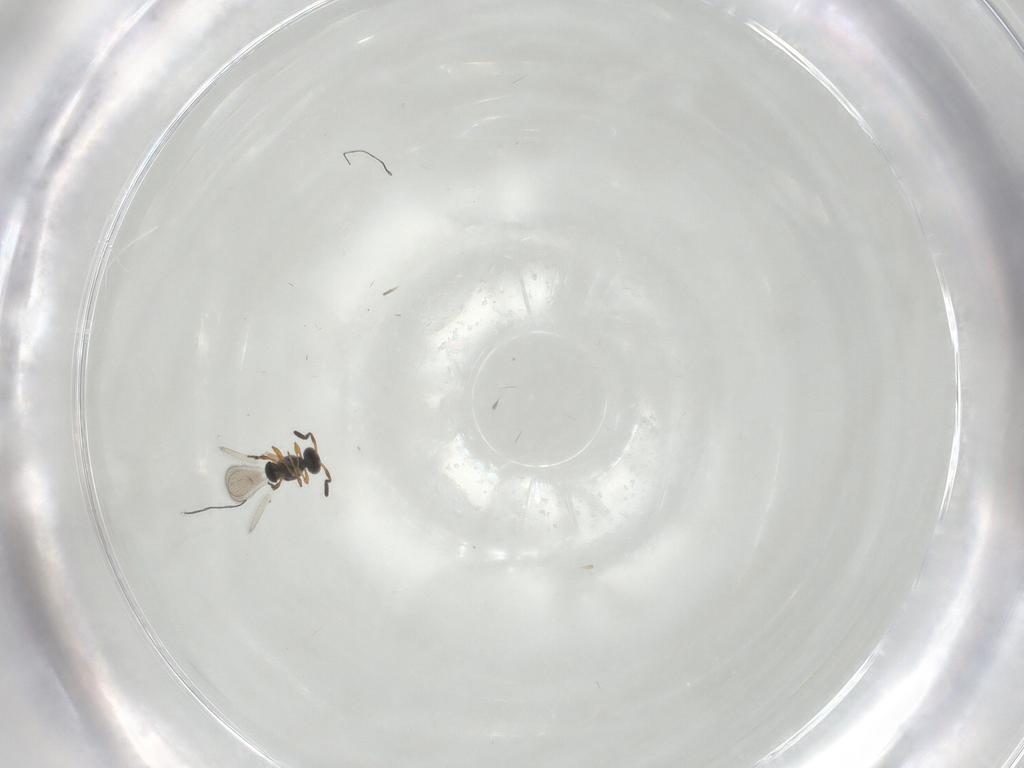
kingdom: Animalia
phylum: Arthropoda
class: Insecta
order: Hymenoptera
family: Platygastridae
